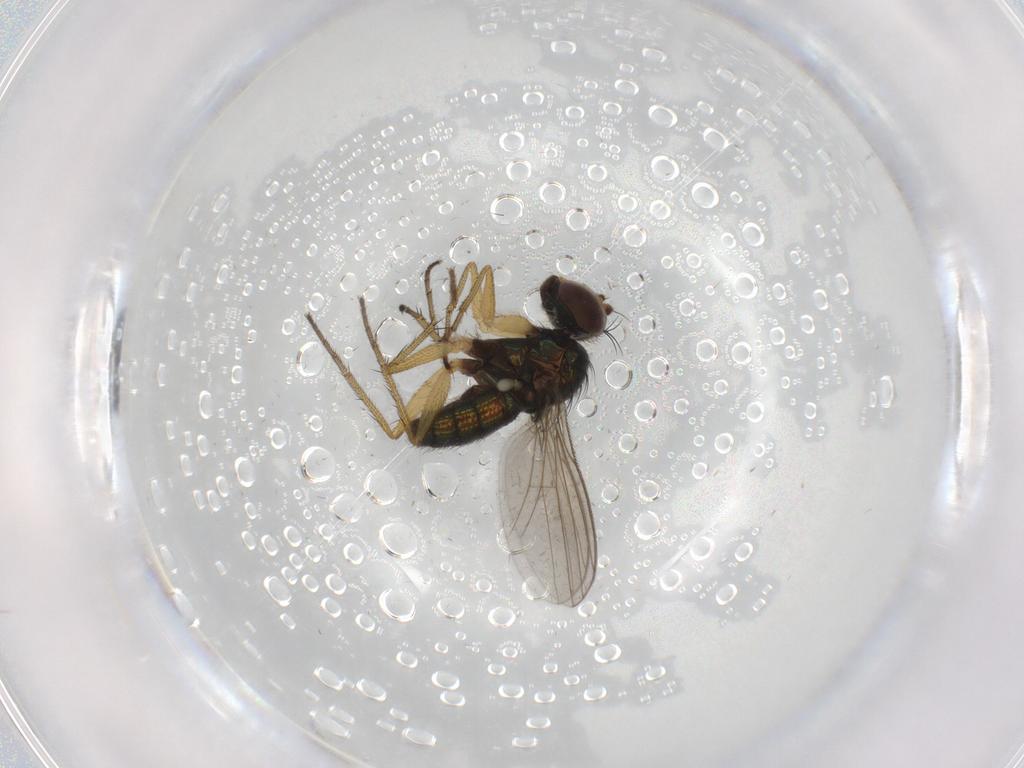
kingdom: Animalia
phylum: Arthropoda
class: Insecta
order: Diptera
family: Dolichopodidae
